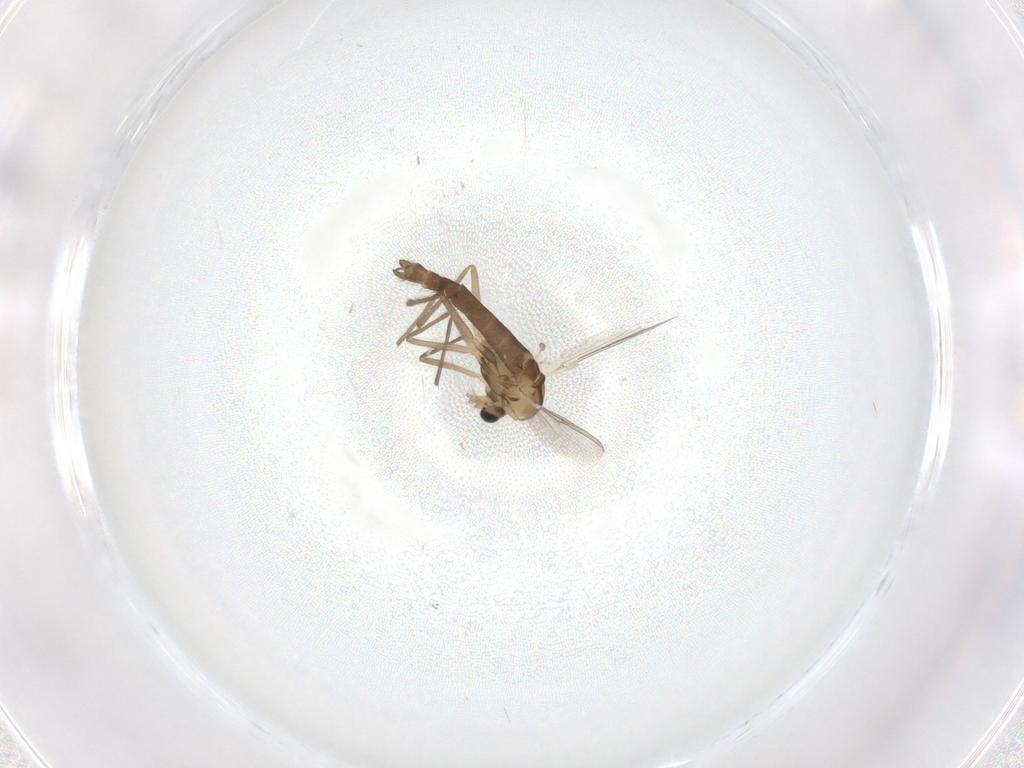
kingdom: Animalia
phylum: Arthropoda
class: Insecta
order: Diptera
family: Chironomidae
